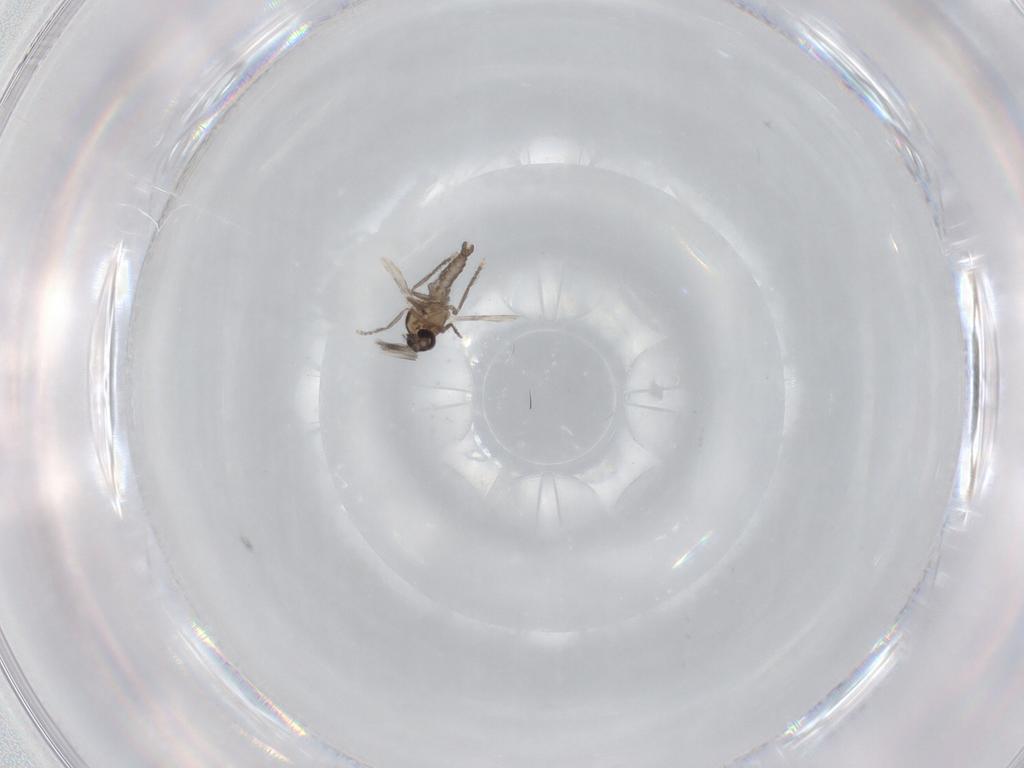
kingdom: Animalia
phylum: Arthropoda
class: Insecta
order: Diptera
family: Ceratopogonidae
